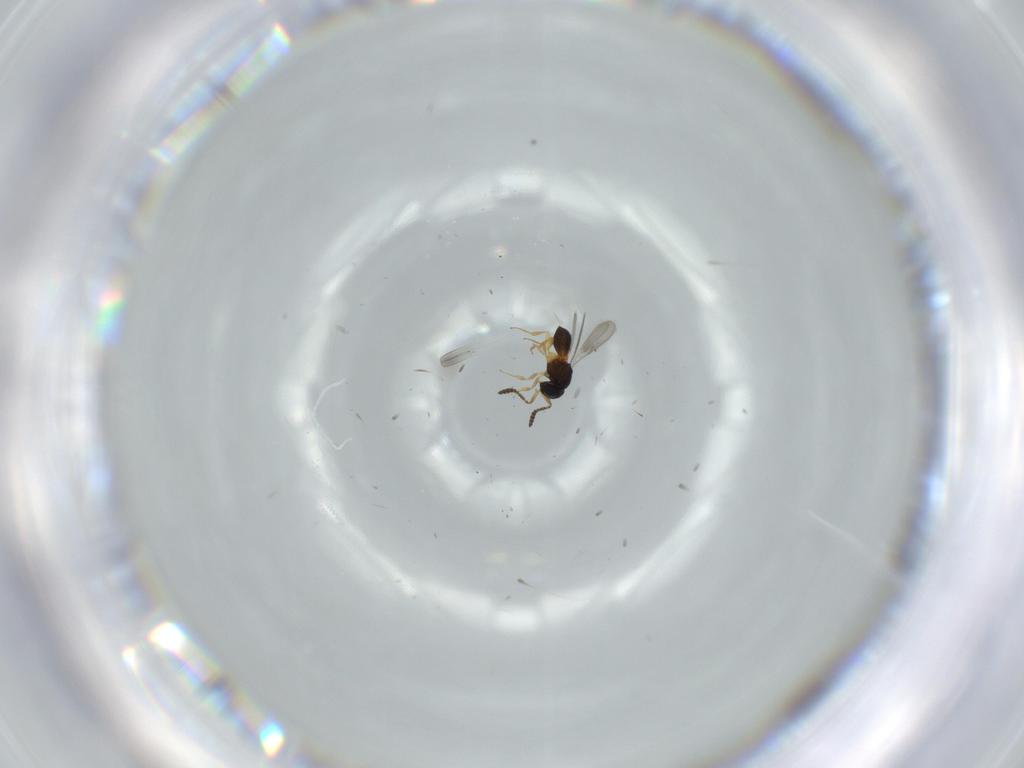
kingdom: Animalia
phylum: Arthropoda
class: Insecta
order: Hymenoptera
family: Scelionidae
